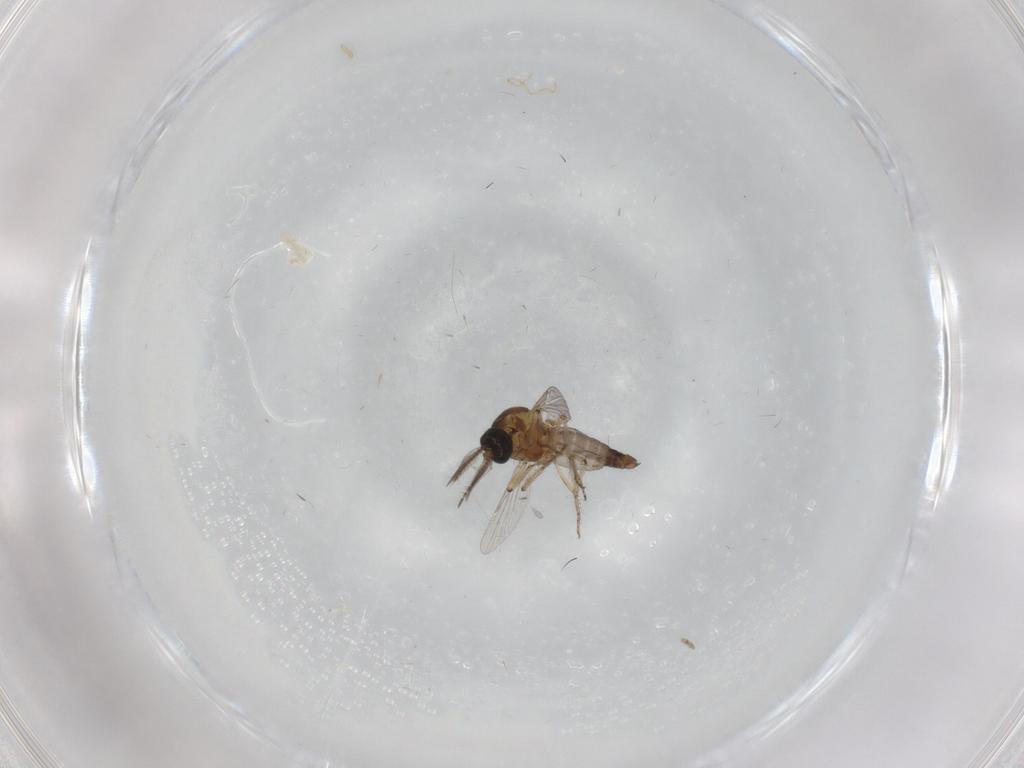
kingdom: Animalia
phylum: Arthropoda
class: Insecta
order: Diptera
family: Ceratopogonidae
